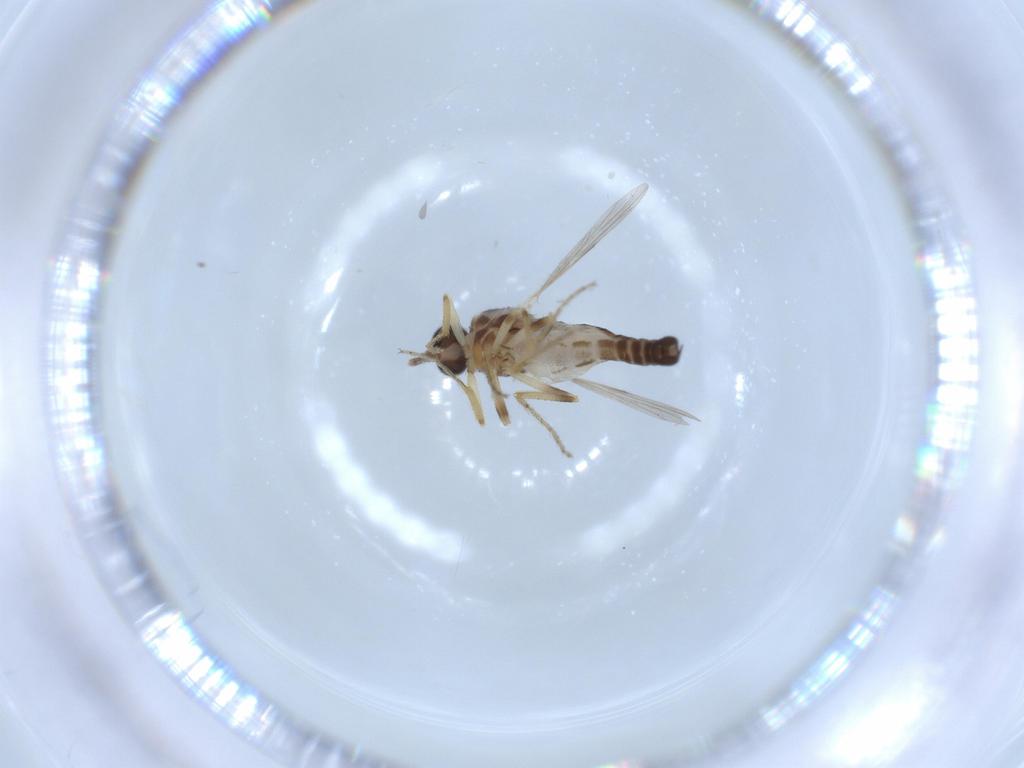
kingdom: Animalia
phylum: Arthropoda
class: Insecta
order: Diptera
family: Ceratopogonidae
